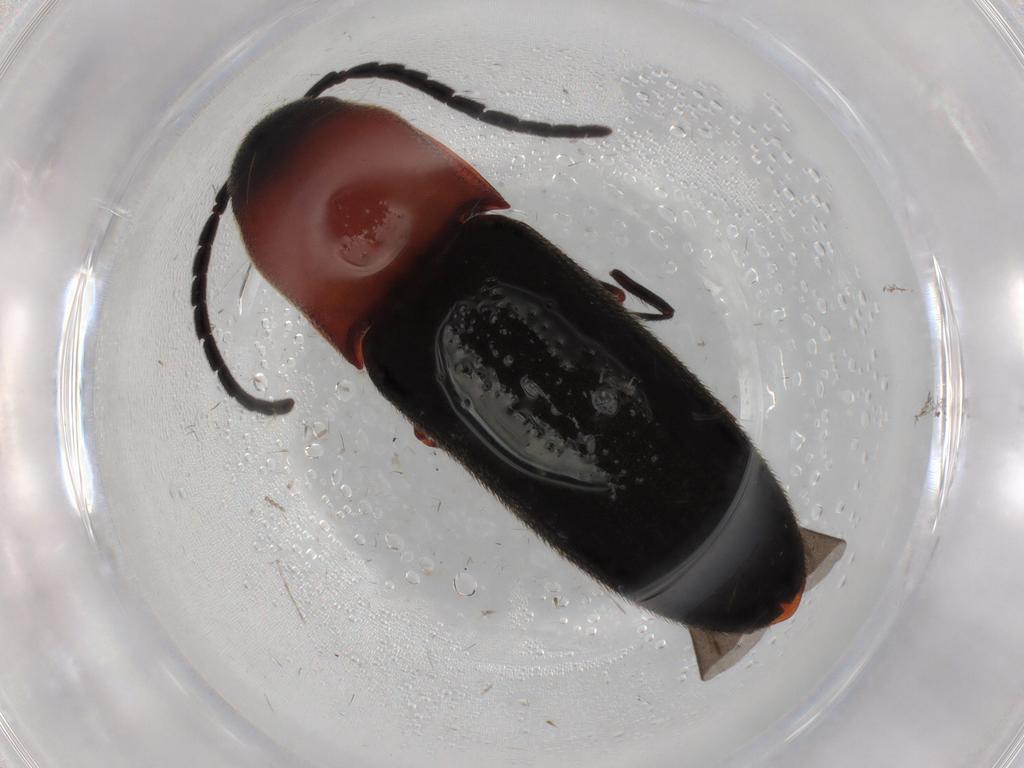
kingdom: Animalia
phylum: Arthropoda
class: Insecta
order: Coleoptera
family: Eucnemidae
